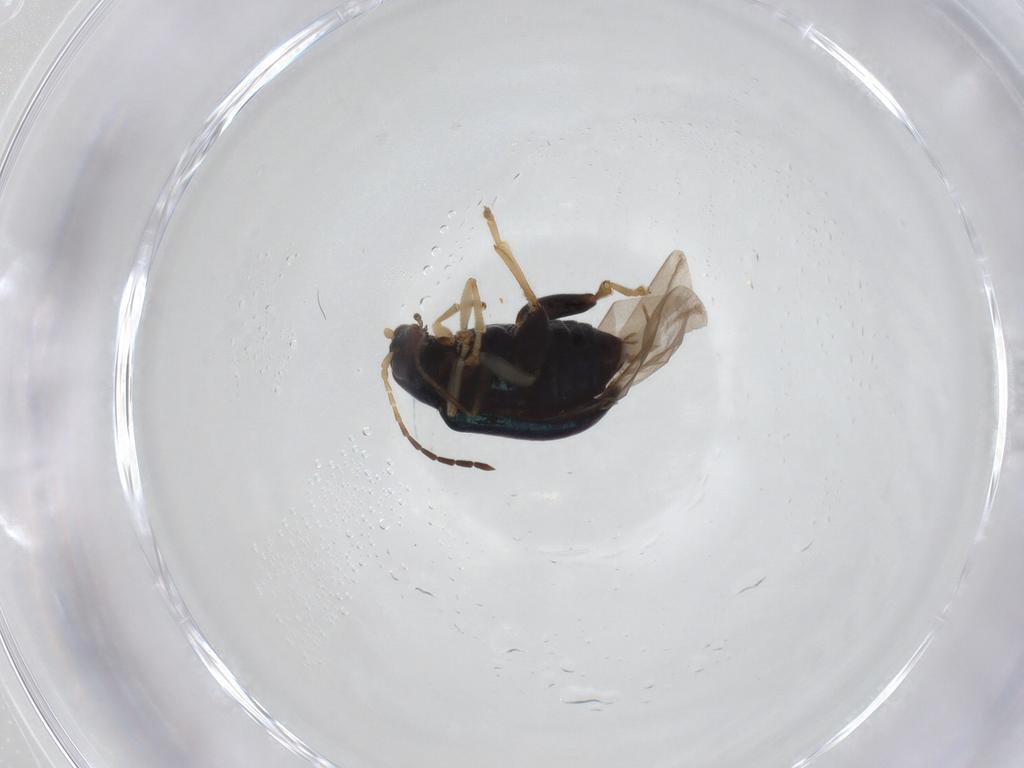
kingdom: Animalia
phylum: Arthropoda
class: Insecta
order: Coleoptera
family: Chrysomelidae
